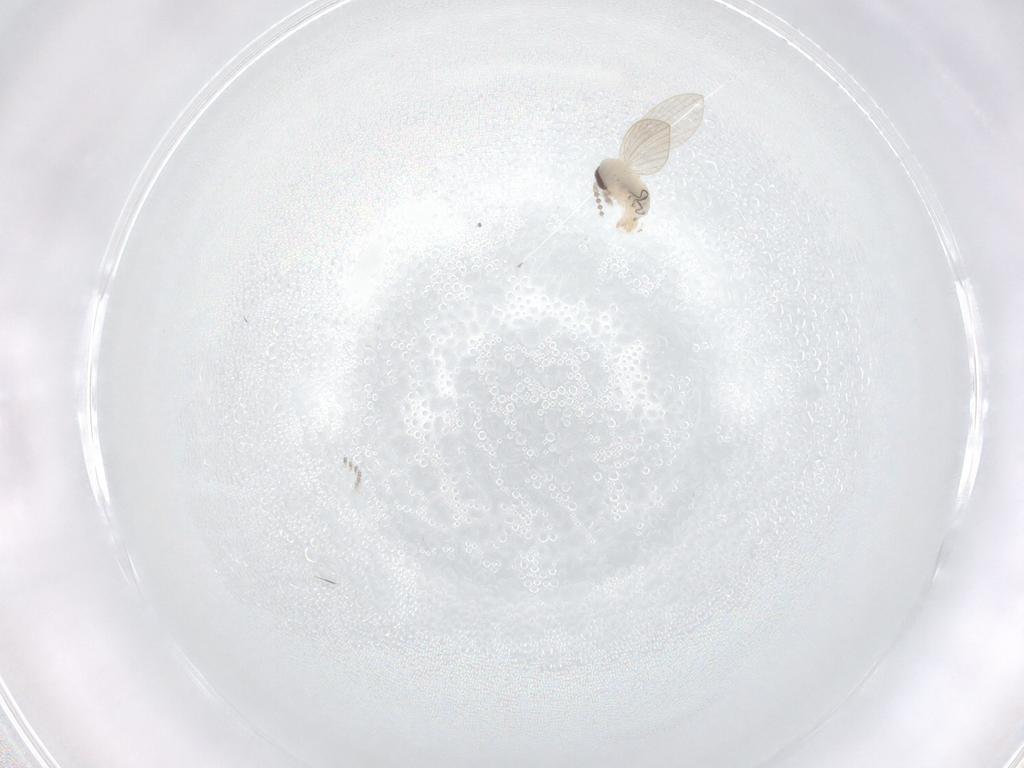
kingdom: Animalia
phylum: Arthropoda
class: Insecta
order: Diptera
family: Psychodidae
